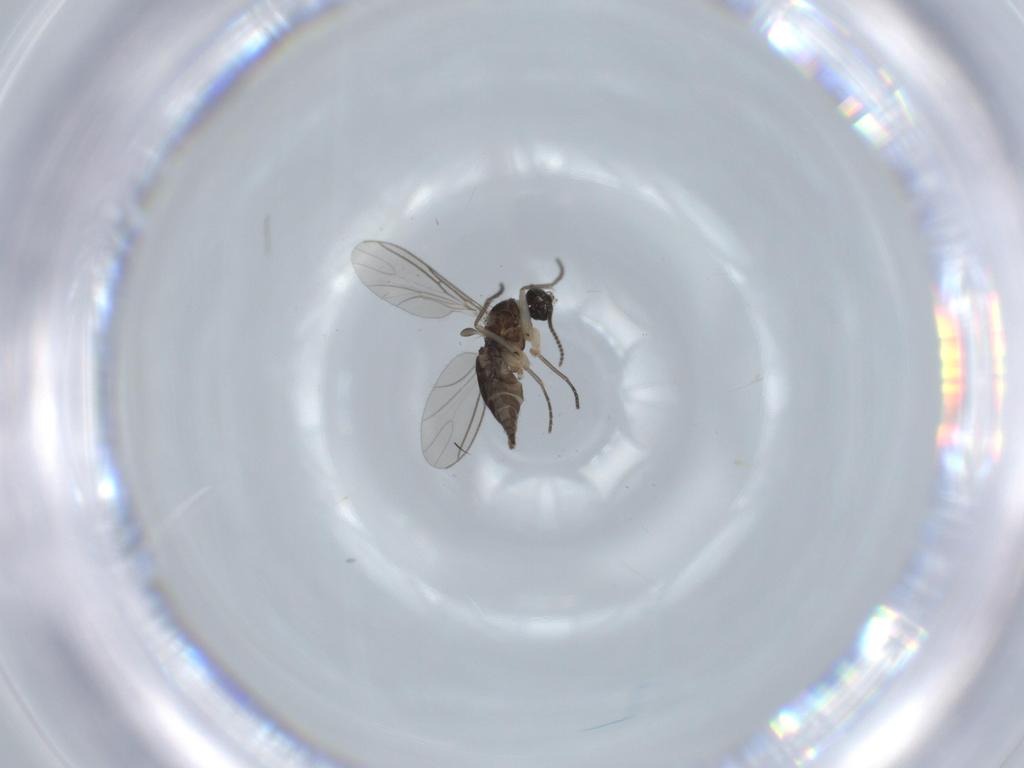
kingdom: Animalia
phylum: Arthropoda
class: Insecta
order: Diptera
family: Sciaridae
